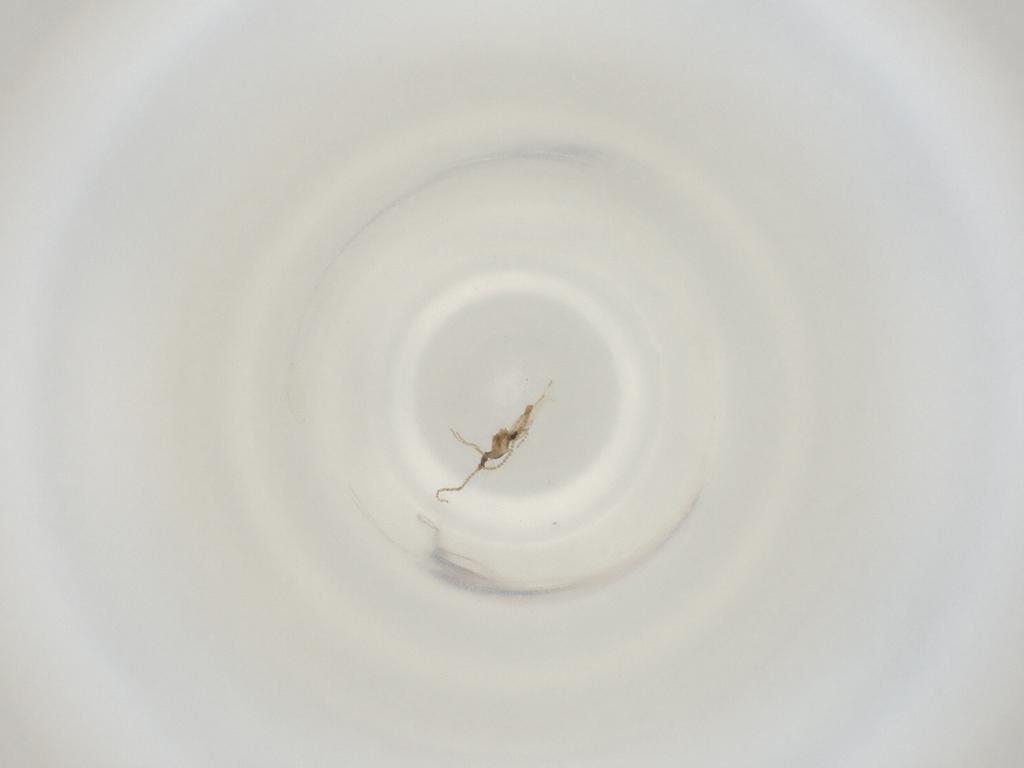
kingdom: Animalia
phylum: Arthropoda
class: Insecta
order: Diptera
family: Cecidomyiidae
